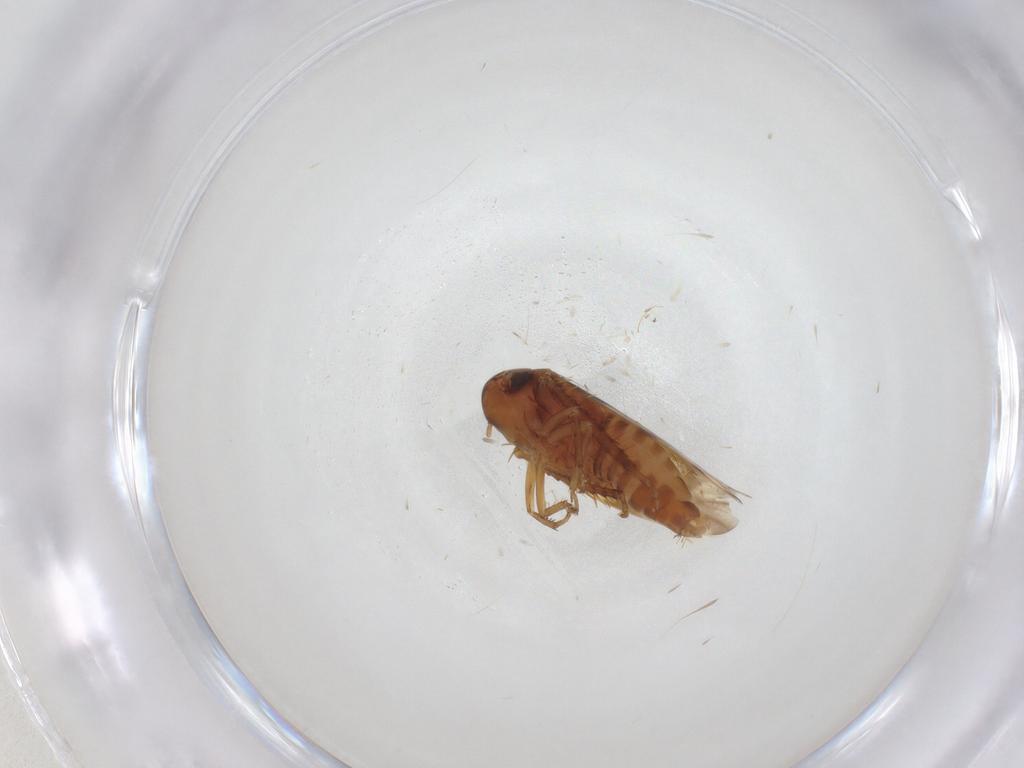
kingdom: Animalia
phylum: Arthropoda
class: Insecta
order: Hemiptera
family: Cicadellidae
